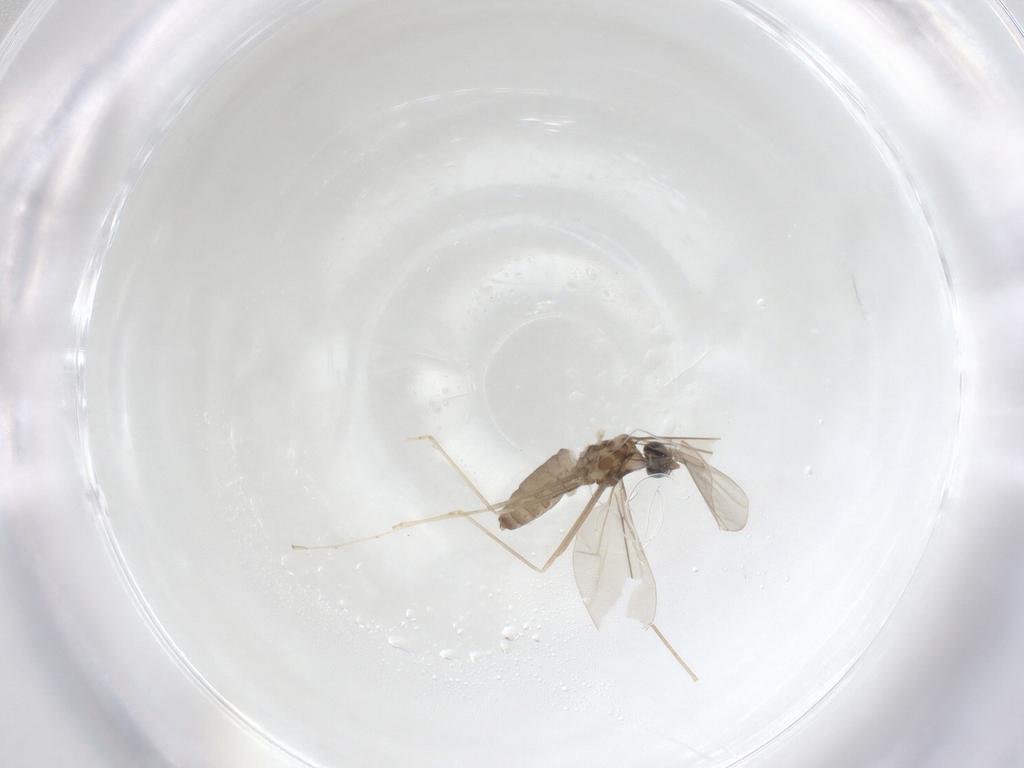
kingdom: Animalia
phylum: Arthropoda
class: Insecta
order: Diptera
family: Cecidomyiidae
